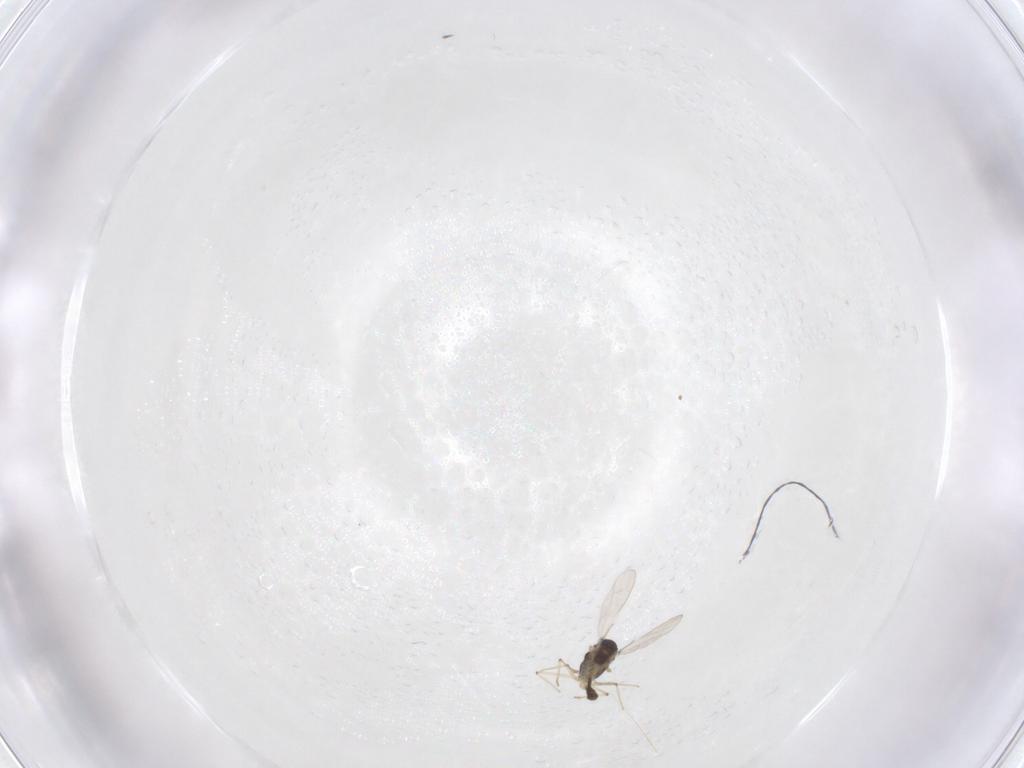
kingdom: Animalia
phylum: Arthropoda
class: Insecta
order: Diptera
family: Chironomidae
